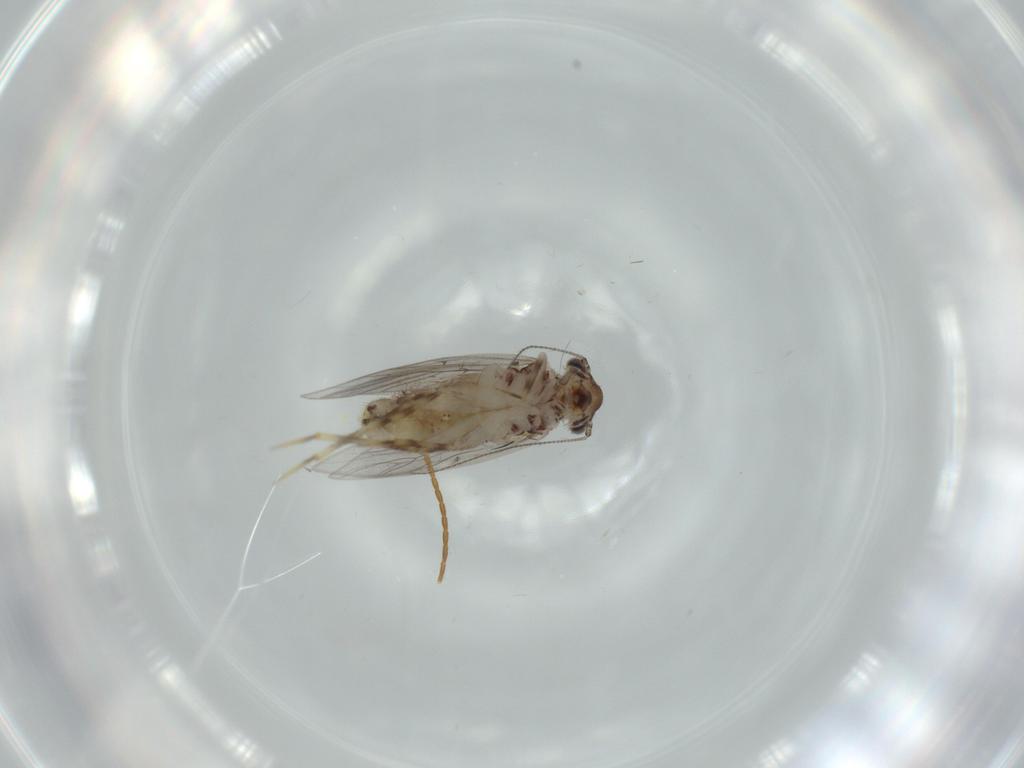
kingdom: Animalia
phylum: Arthropoda
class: Insecta
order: Psocodea
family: Lepidopsocidae
